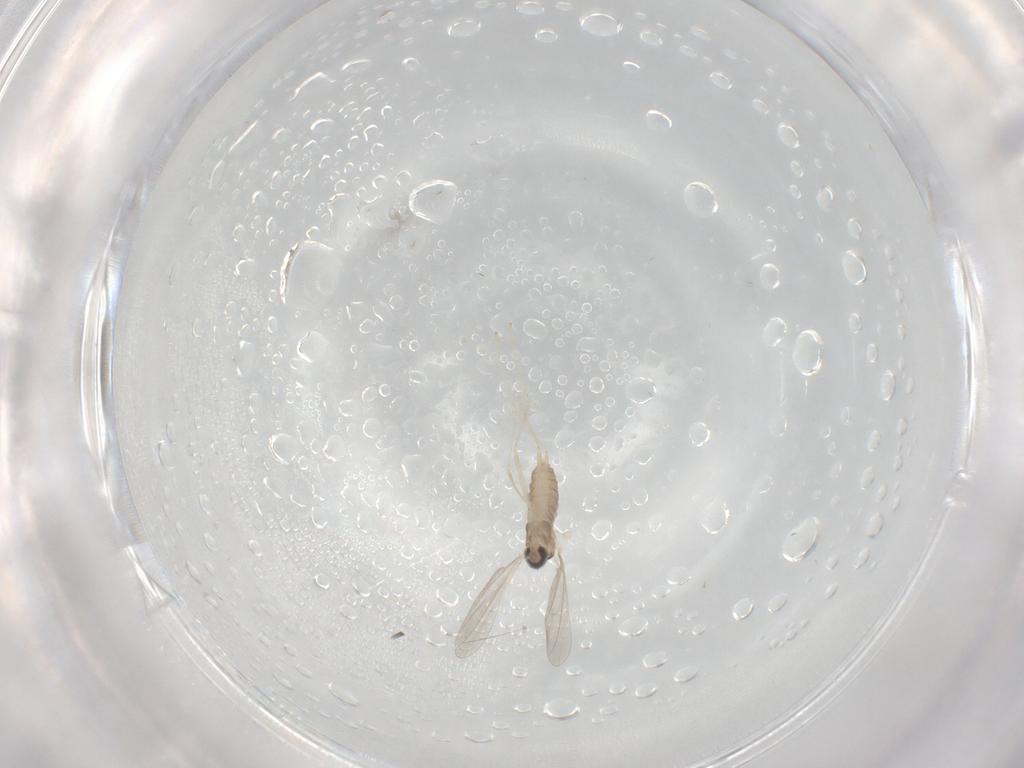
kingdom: Animalia
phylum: Arthropoda
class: Insecta
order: Diptera
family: Cecidomyiidae
